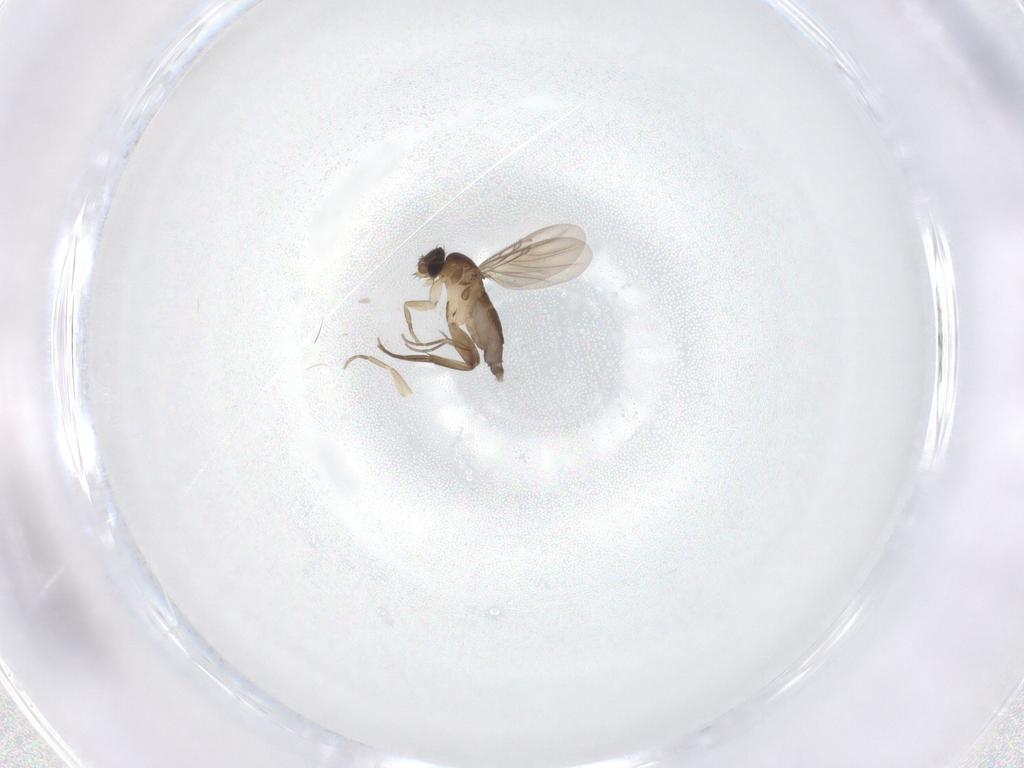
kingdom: Animalia
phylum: Arthropoda
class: Insecta
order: Diptera
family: Phoridae
